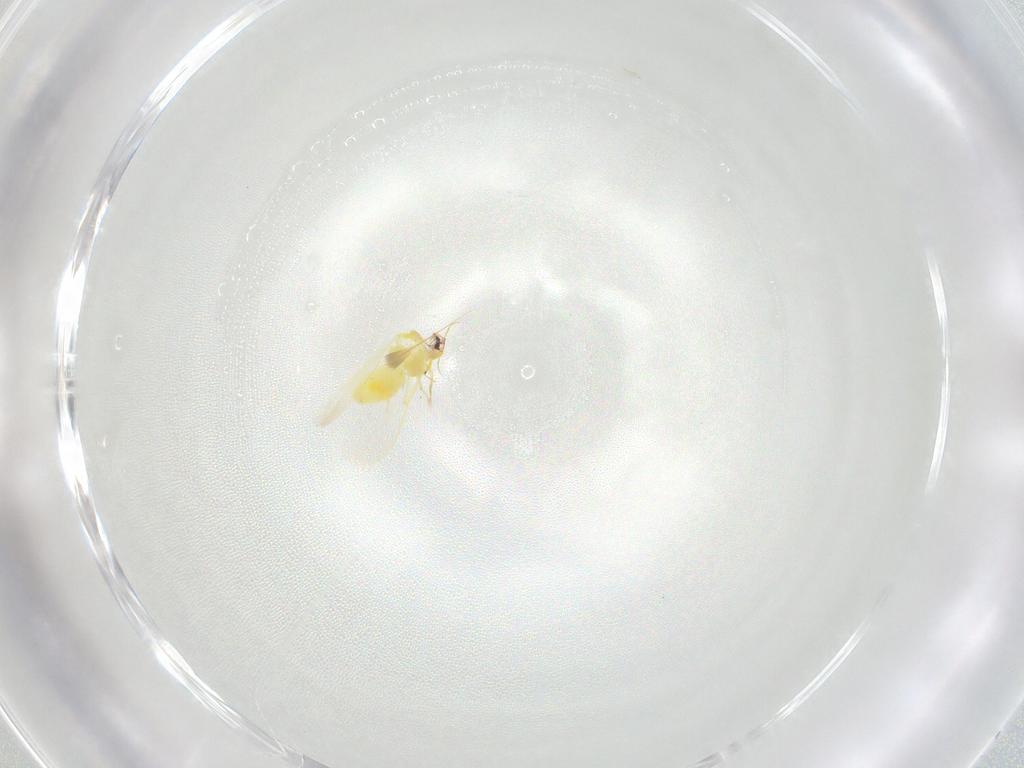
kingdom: Animalia
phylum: Arthropoda
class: Insecta
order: Hemiptera
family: Aleyrodidae
